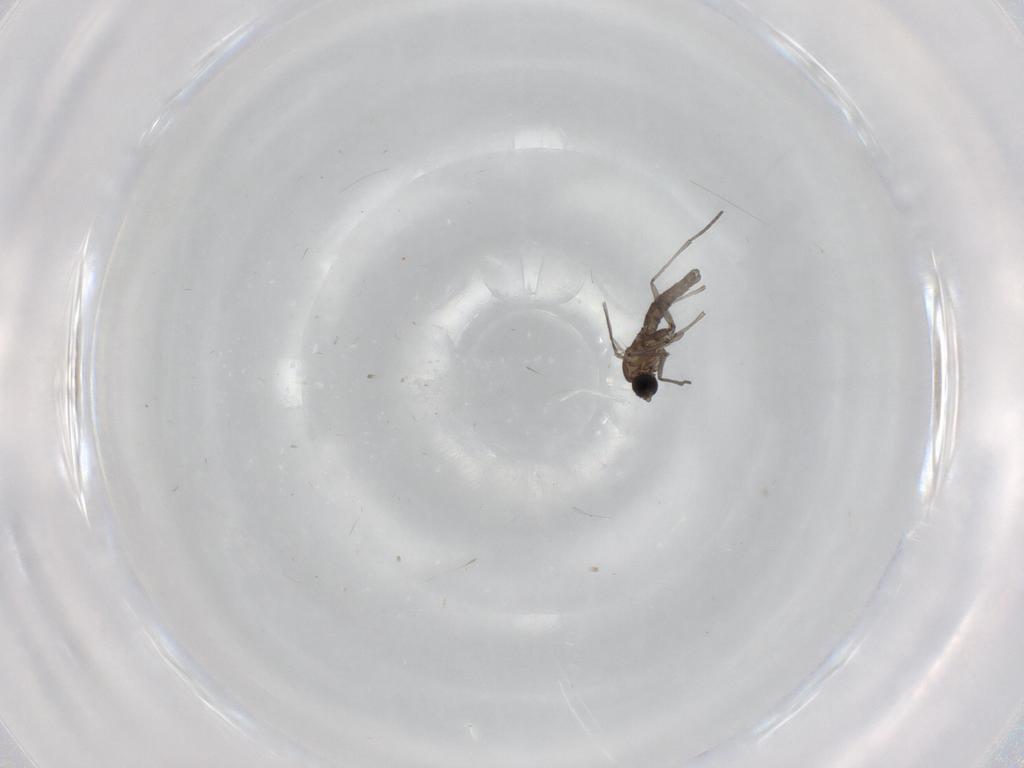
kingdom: Animalia
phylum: Arthropoda
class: Insecta
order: Diptera
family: Cecidomyiidae
